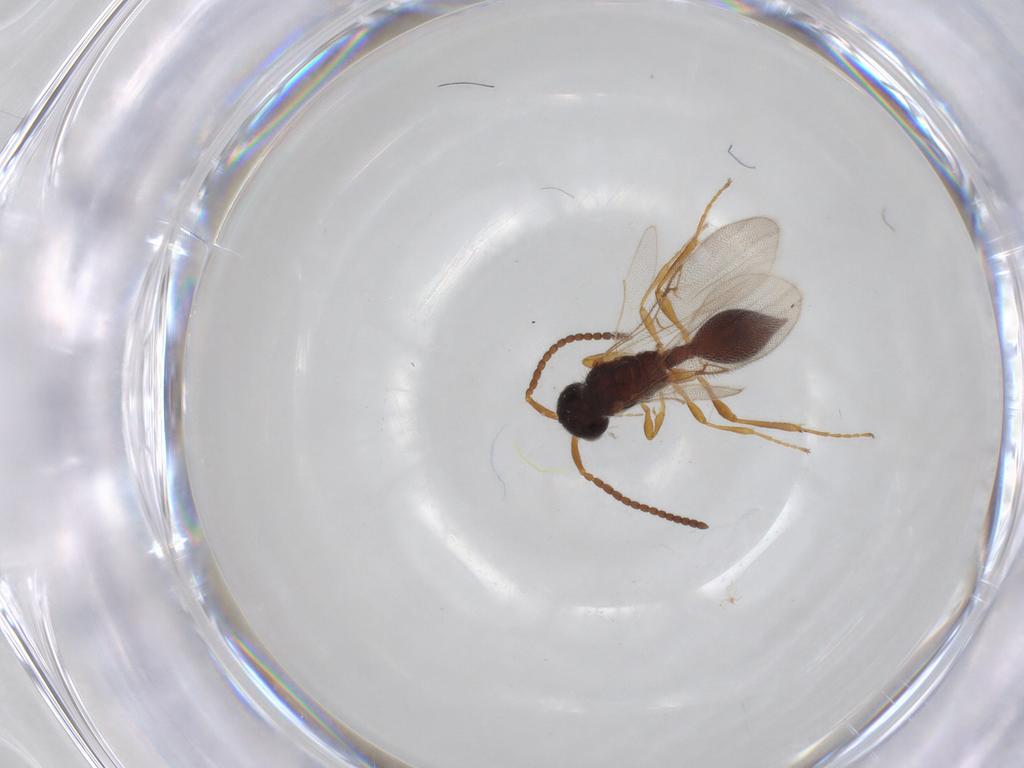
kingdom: Animalia
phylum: Arthropoda
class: Insecta
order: Hymenoptera
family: Diapriidae
